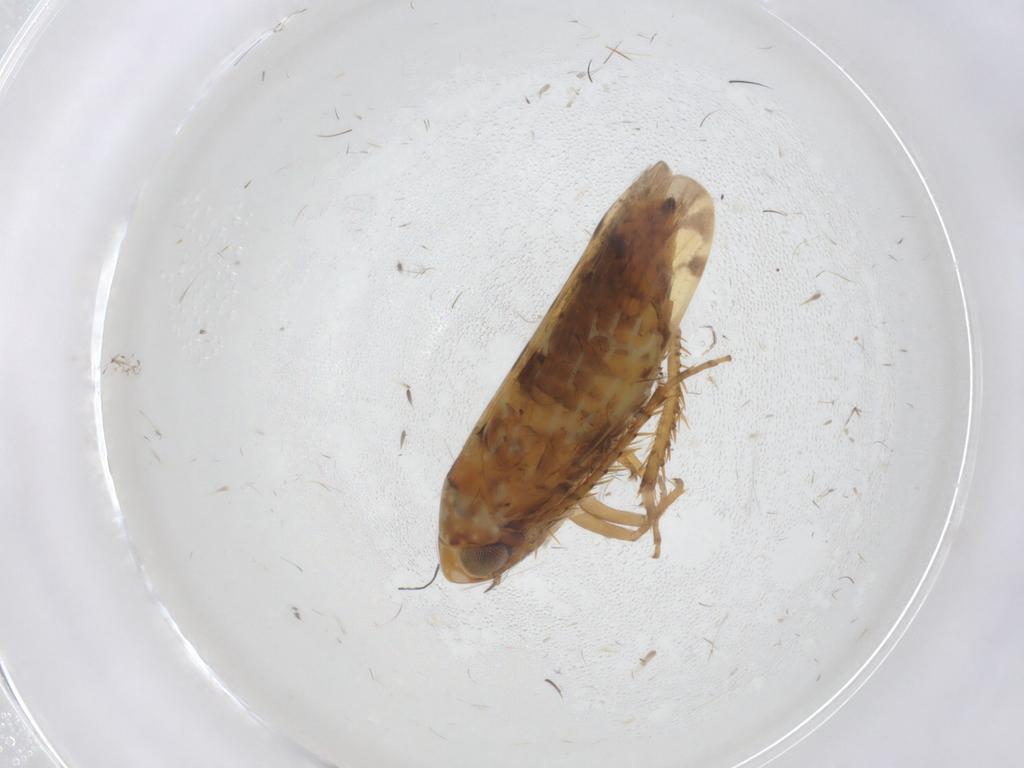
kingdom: Animalia
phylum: Arthropoda
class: Insecta
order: Hemiptera
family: Cicadellidae
